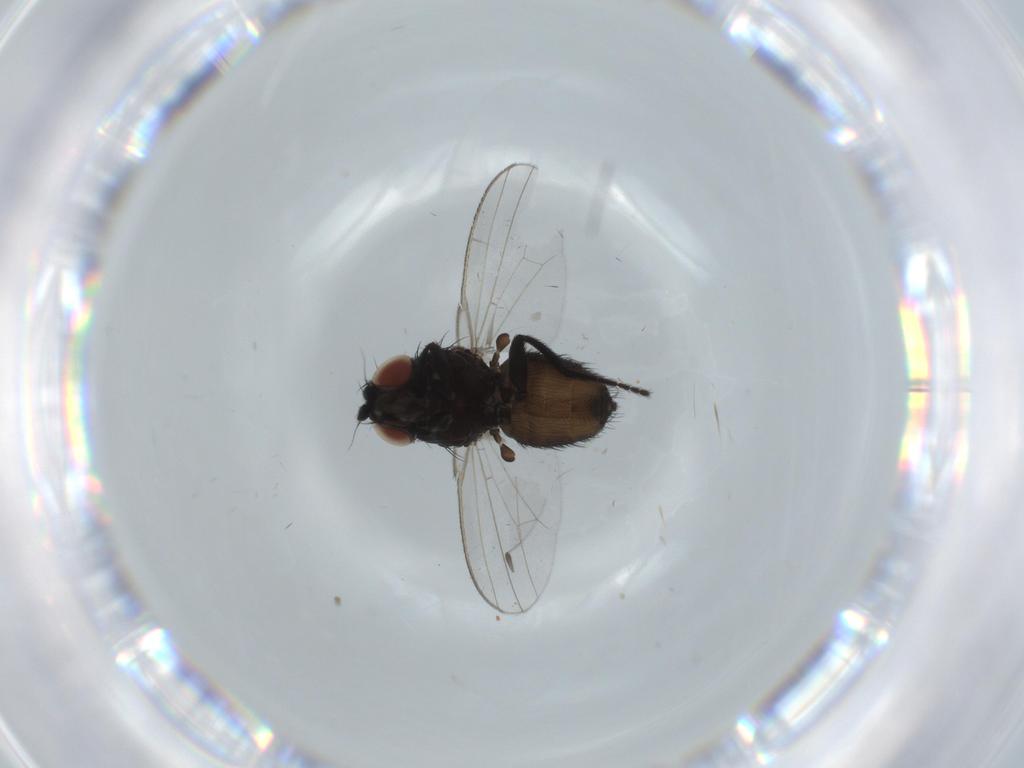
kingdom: Animalia
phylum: Arthropoda
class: Insecta
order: Diptera
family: Milichiidae
